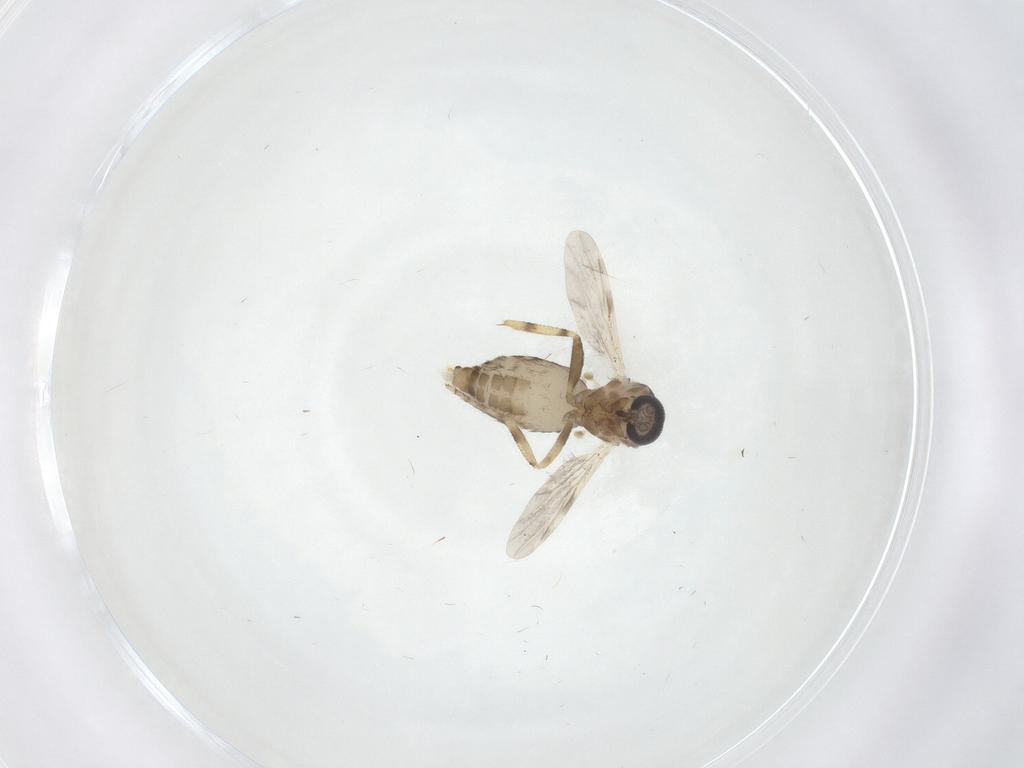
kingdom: Animalia
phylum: Arthropoda
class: Insecta
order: Diptera
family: Ceratopogonidae
